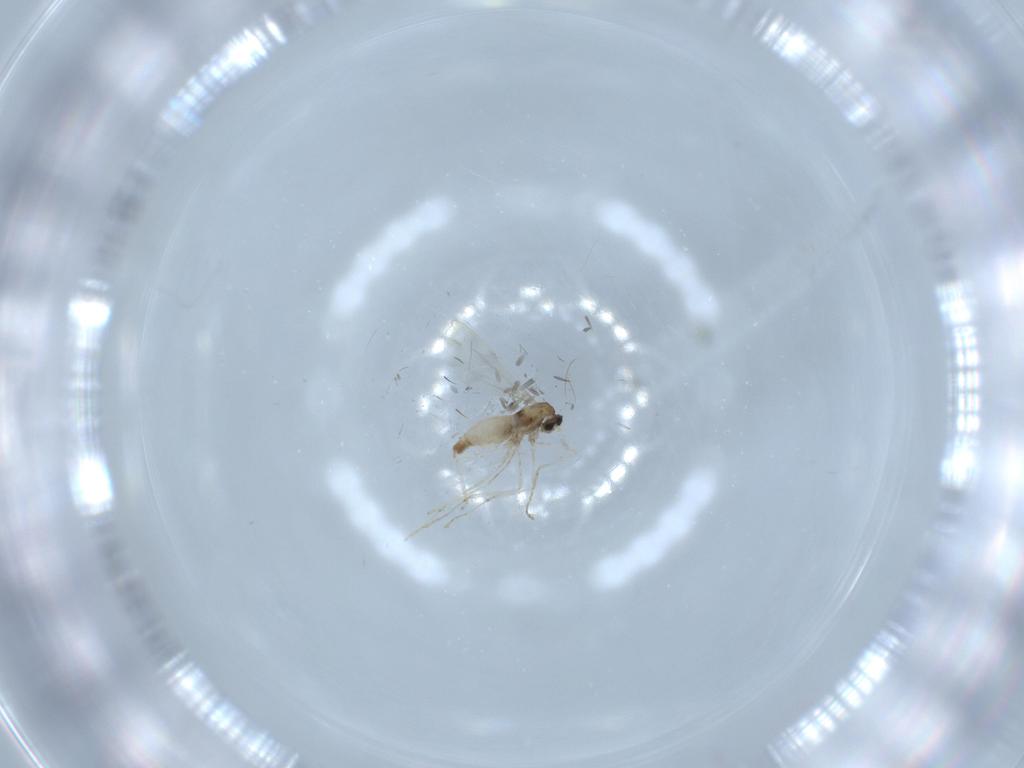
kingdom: Animalia
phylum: Arthropoda
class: Insecta
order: Diptera
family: Cecidomyiidae
